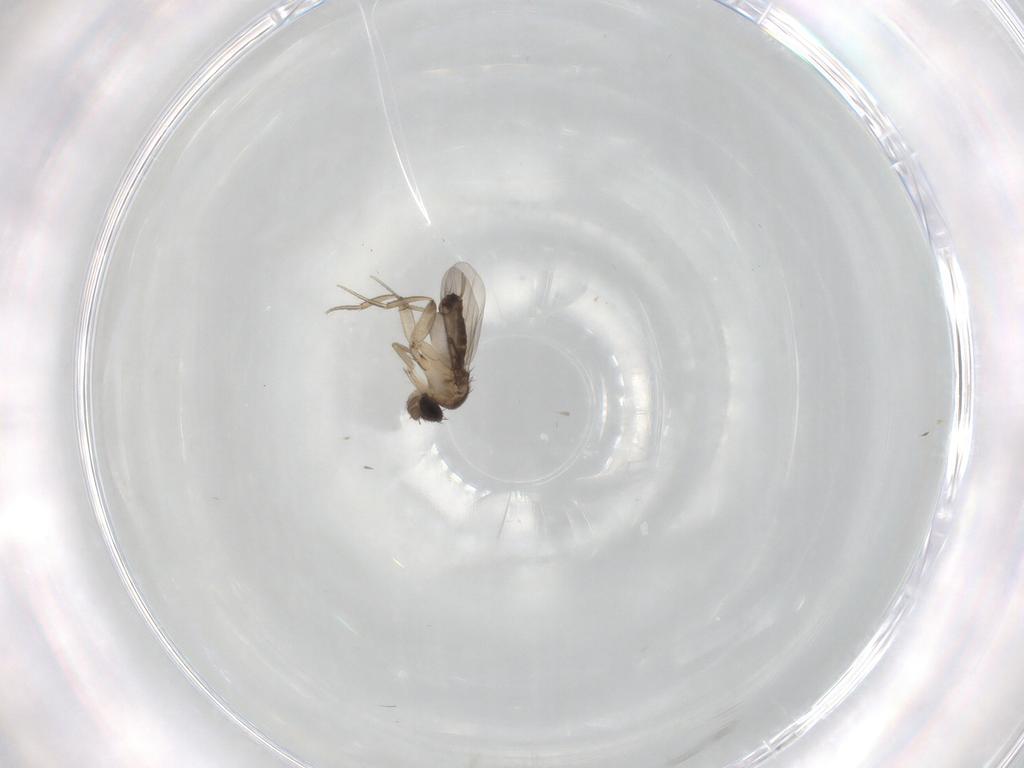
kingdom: Animalia
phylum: Arthropoda
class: Insecta
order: Diptera
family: Phoridae
